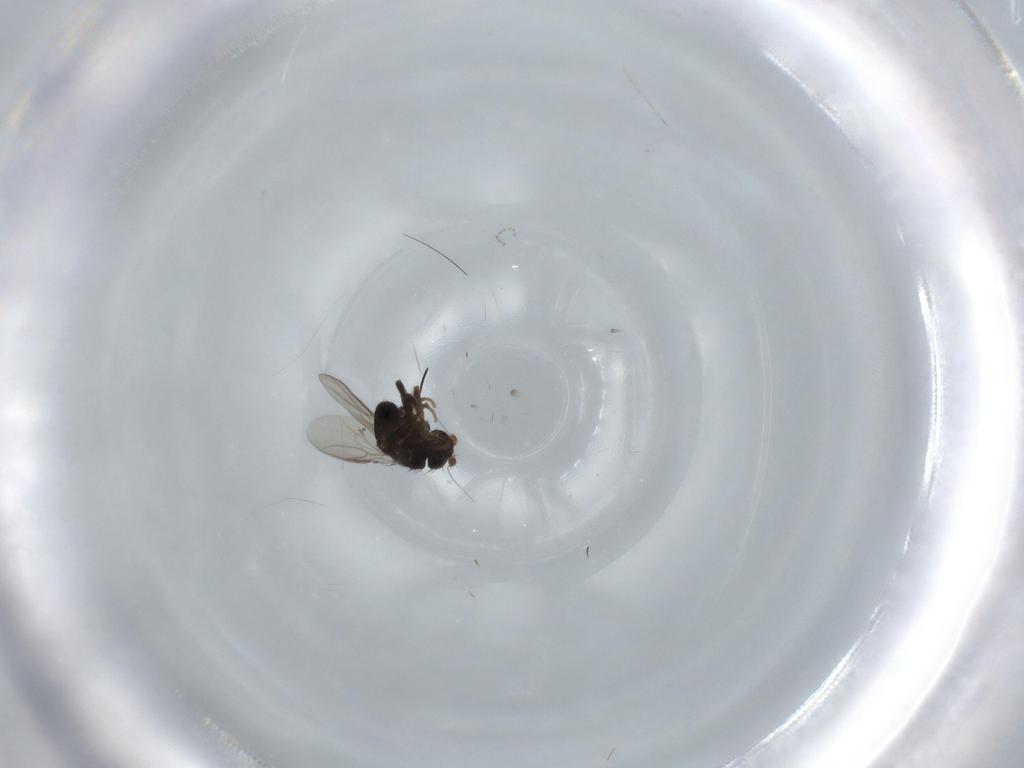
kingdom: Animalia
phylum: Arthropoda
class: Insecta
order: Diptera
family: Sphaeroceridae
